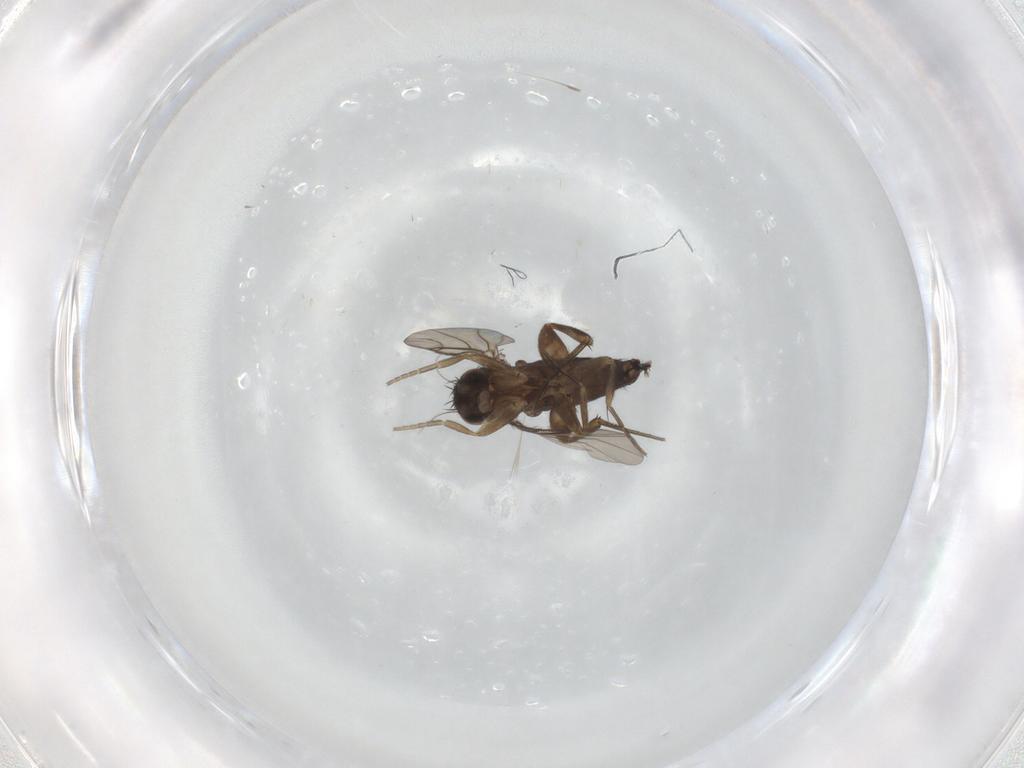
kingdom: Animalia
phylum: Arthropoda
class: Insecta
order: Diptera
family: Phoridae
